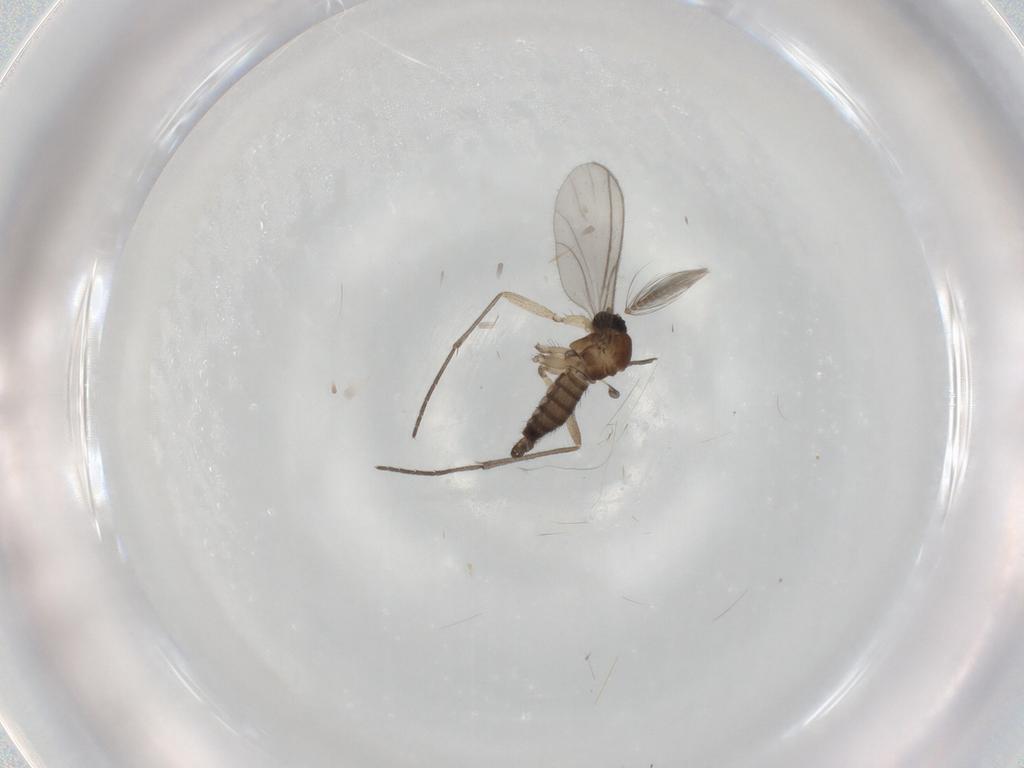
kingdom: Animalia
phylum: Arthropoda
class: Insecta
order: Diptera
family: Sciaridae
